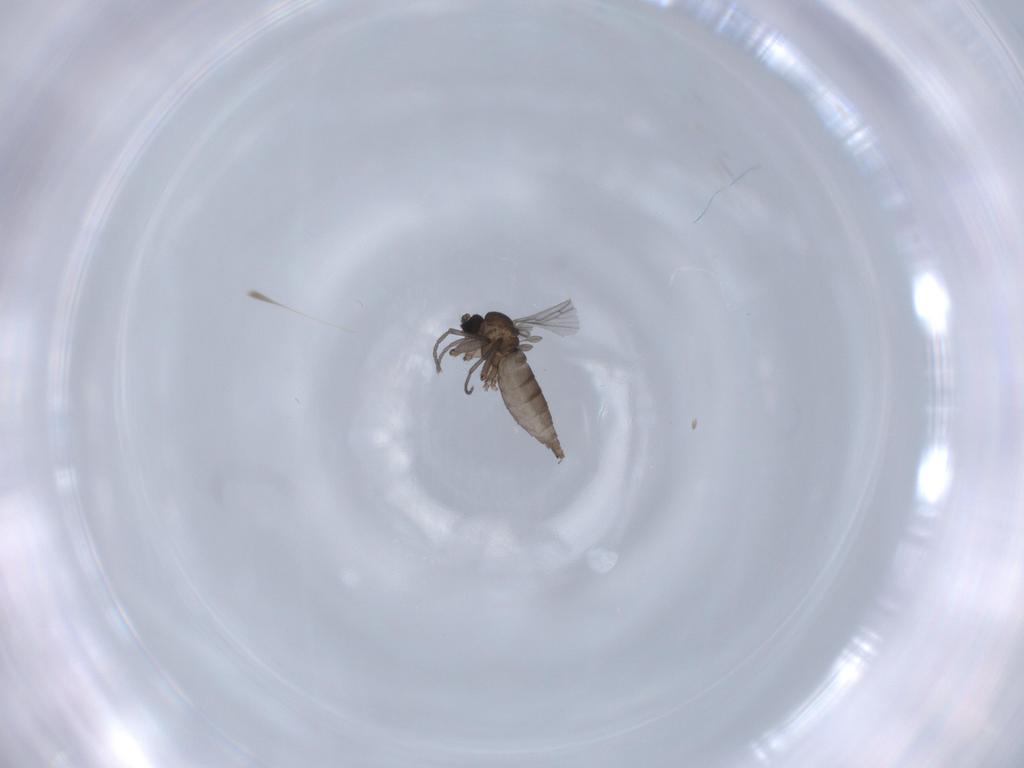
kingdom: Animalia
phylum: Arthropoda
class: Insecta
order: Diptera
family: Sciaridae
